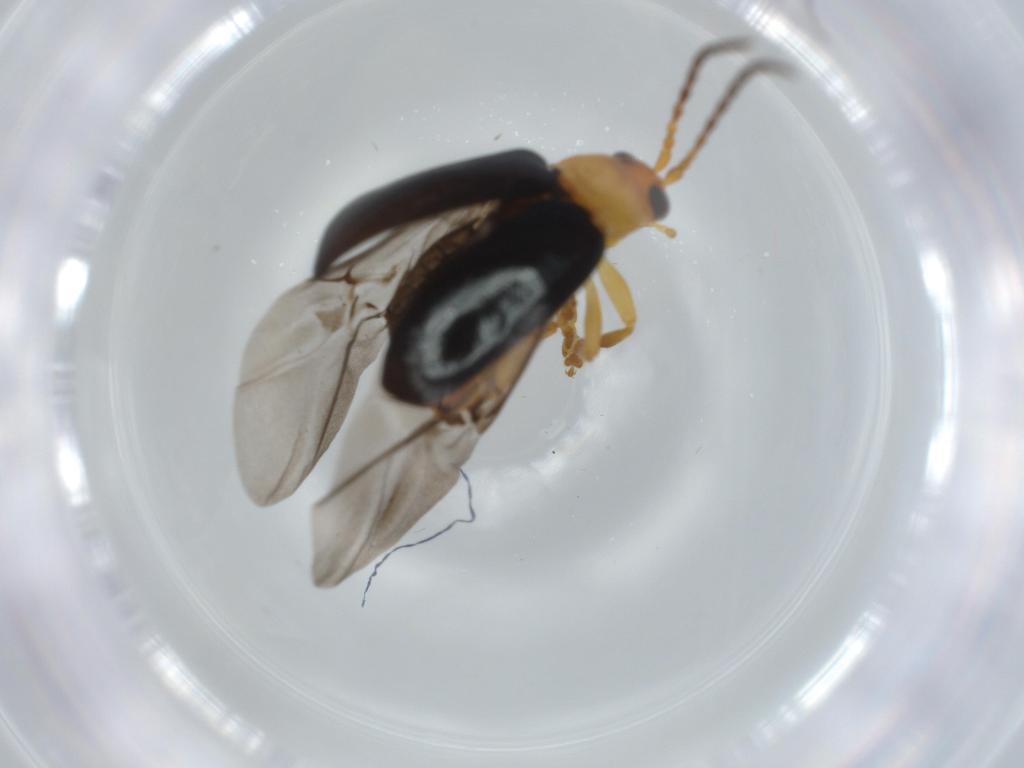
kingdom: Animalia
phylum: Arthropoda
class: Insecta
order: Coleoptera
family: Chrysomelidae
